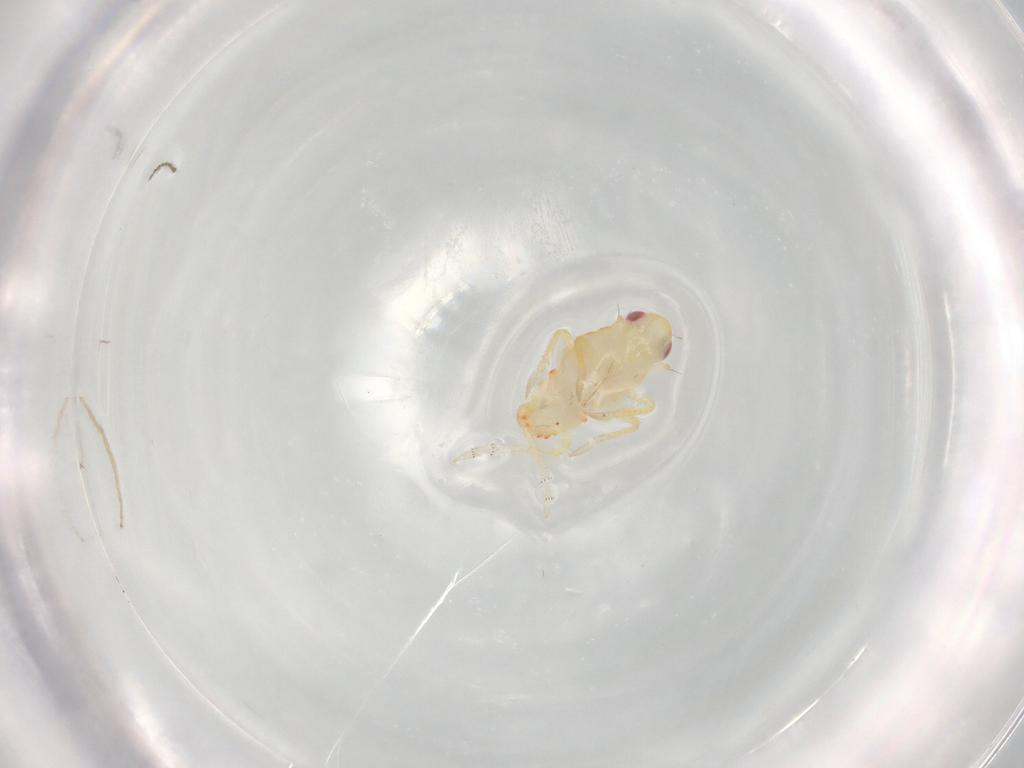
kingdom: Animalia
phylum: Arthropoda
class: Insecta
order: Hemiptera
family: Tropiduchidae
